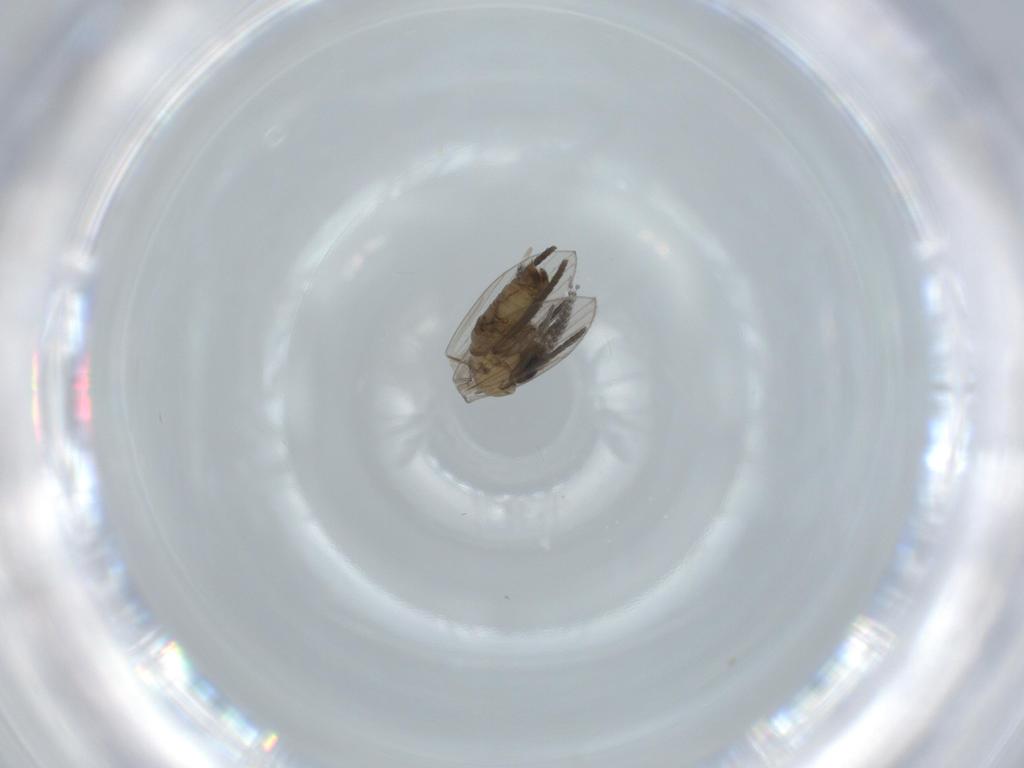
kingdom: Animalia
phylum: Arthropoda
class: Insecta
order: Diptera
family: Psychodidae
